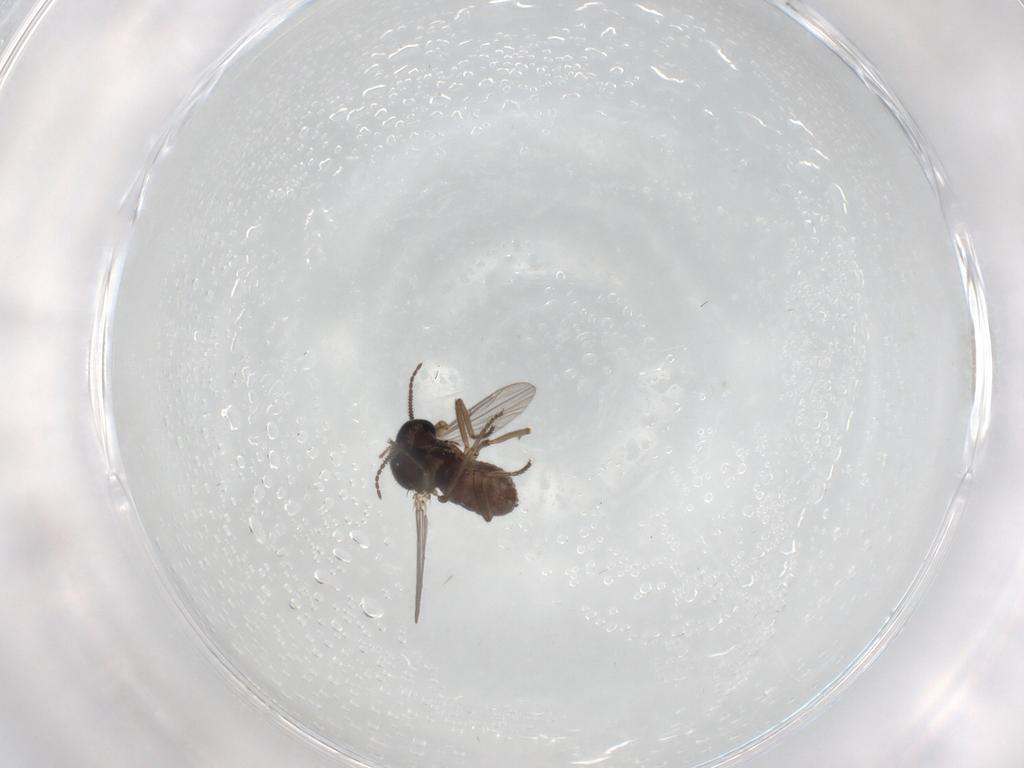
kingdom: Animalia
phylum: Arthropoda
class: Insecta
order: Diptera
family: Ceratopogonidae
